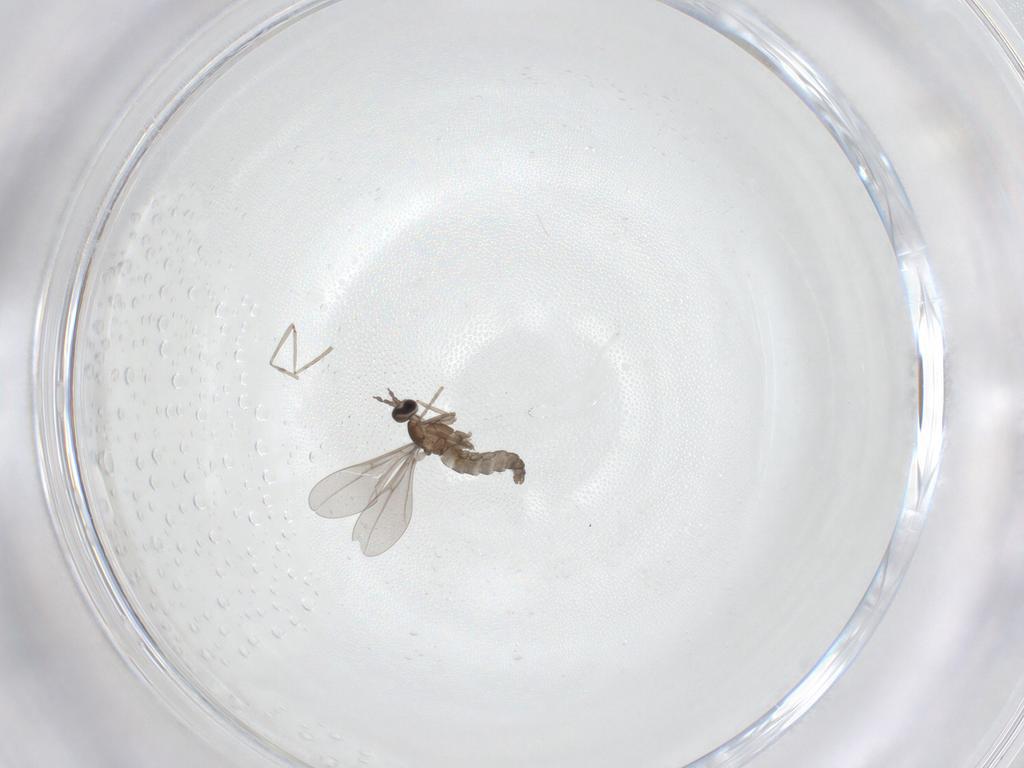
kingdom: Animalia
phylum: Arthropoda
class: Insecta
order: Diptera
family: Cecidomyiidae
